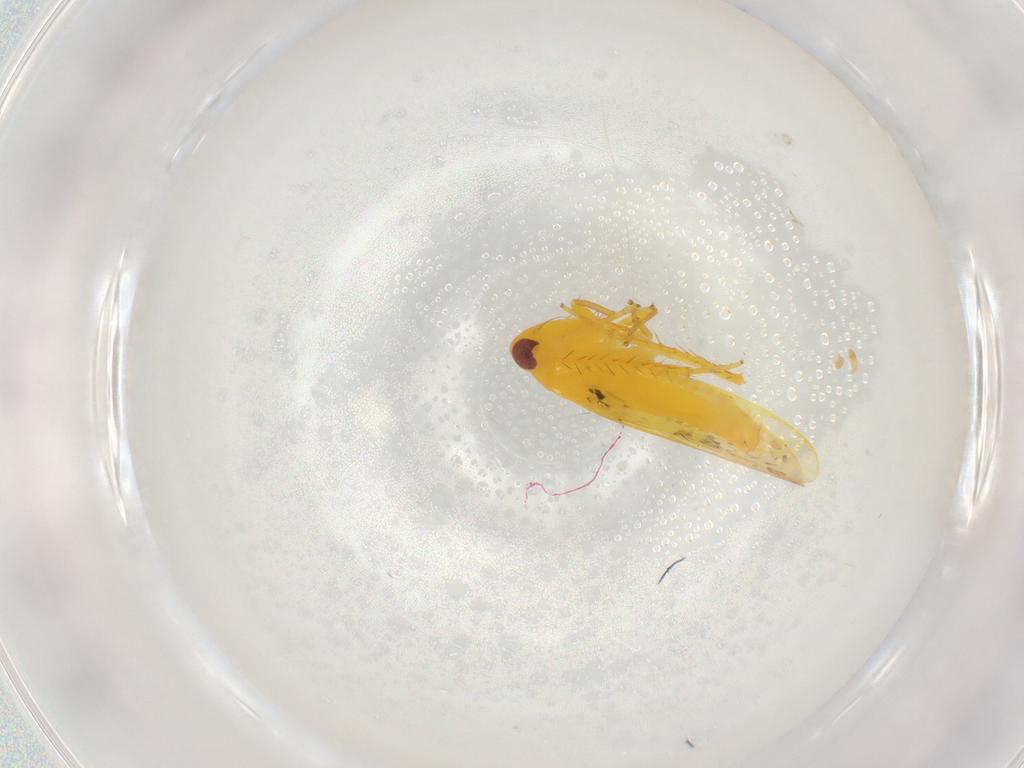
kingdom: Animalia
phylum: Arthropoda
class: Insecta
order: Hemiptera
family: Cicadellidae
